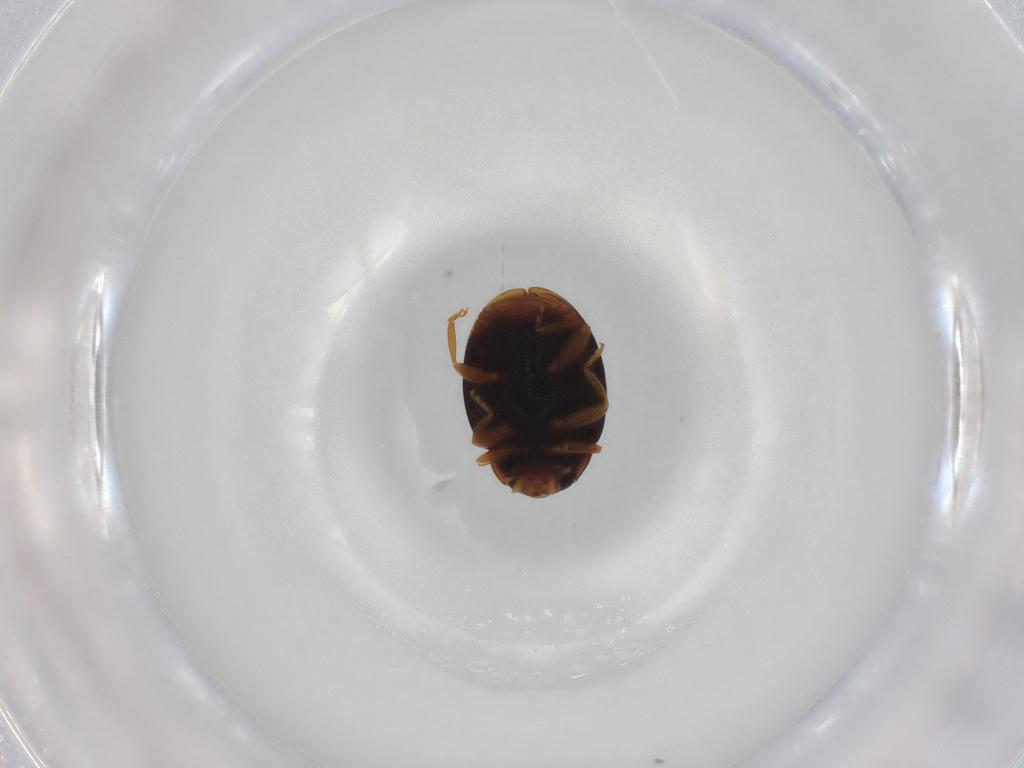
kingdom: Animalia
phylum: Arthropoda
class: Insecta
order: Coleoptera
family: Coccinellidae
